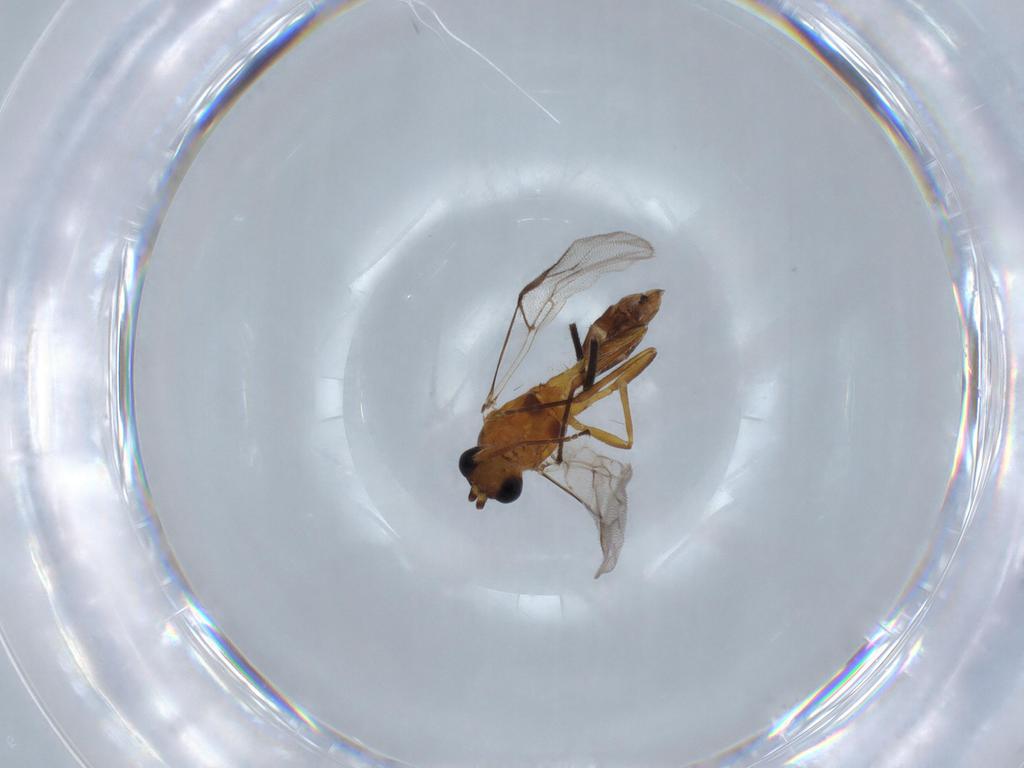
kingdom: Animalia
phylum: Arthropoda
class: Insecta
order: Hymenoptera
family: Braconidae
